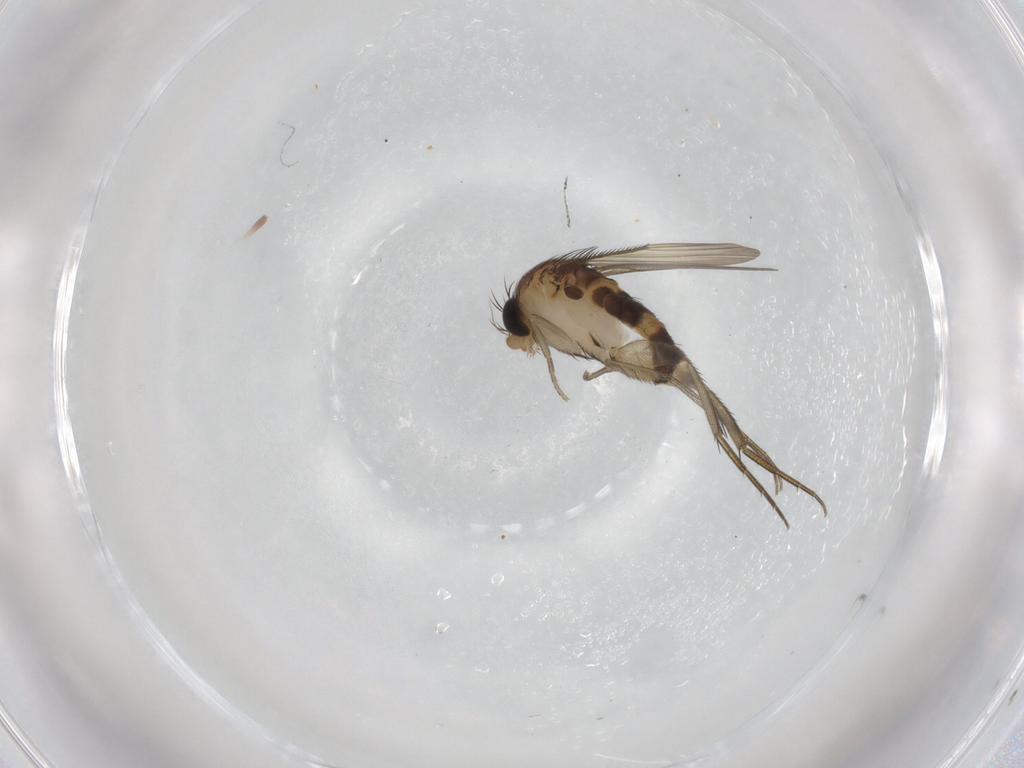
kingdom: Animalia
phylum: Arthropoda
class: Insecta
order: Diptera
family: Phoridae
